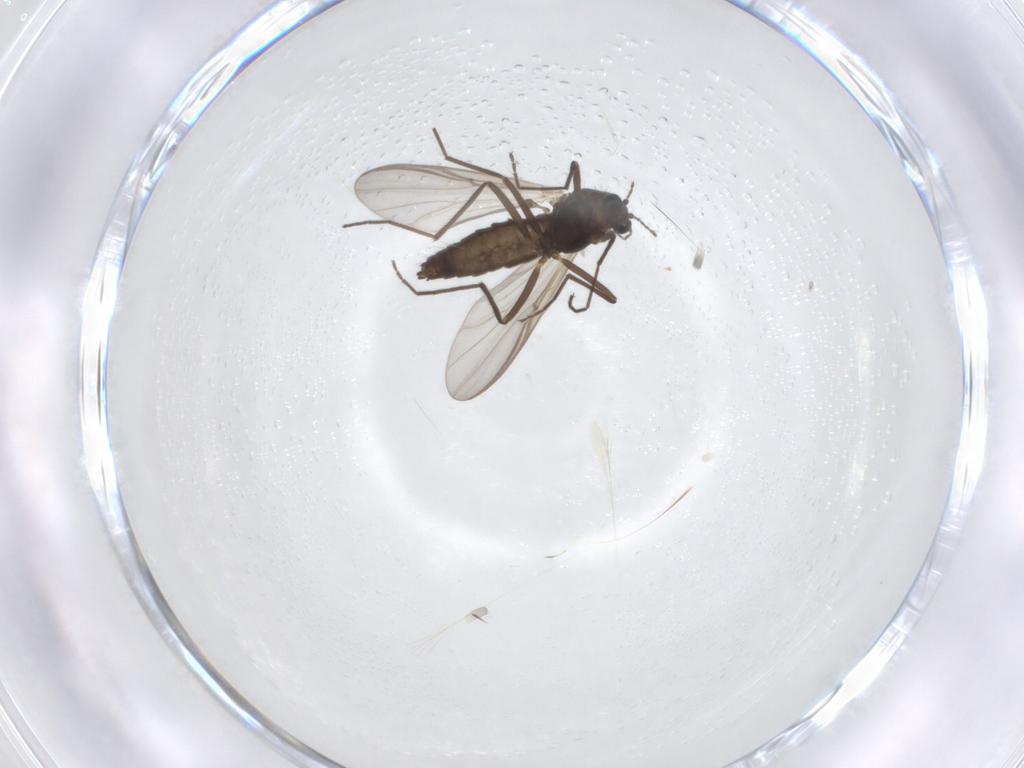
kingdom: Animalia
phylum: Arthropoda
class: Insecta
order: Diptera
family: Chironomidae
